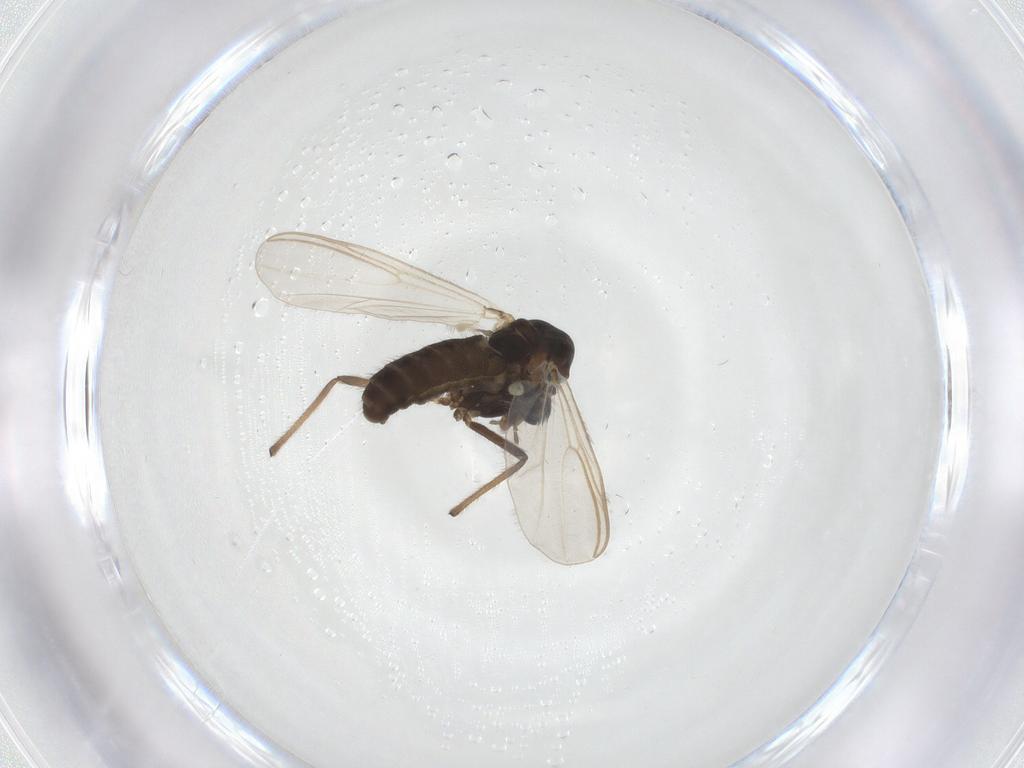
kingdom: Animalia
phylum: Arthropoda
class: Insecta
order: Diptera
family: Chironomidae
